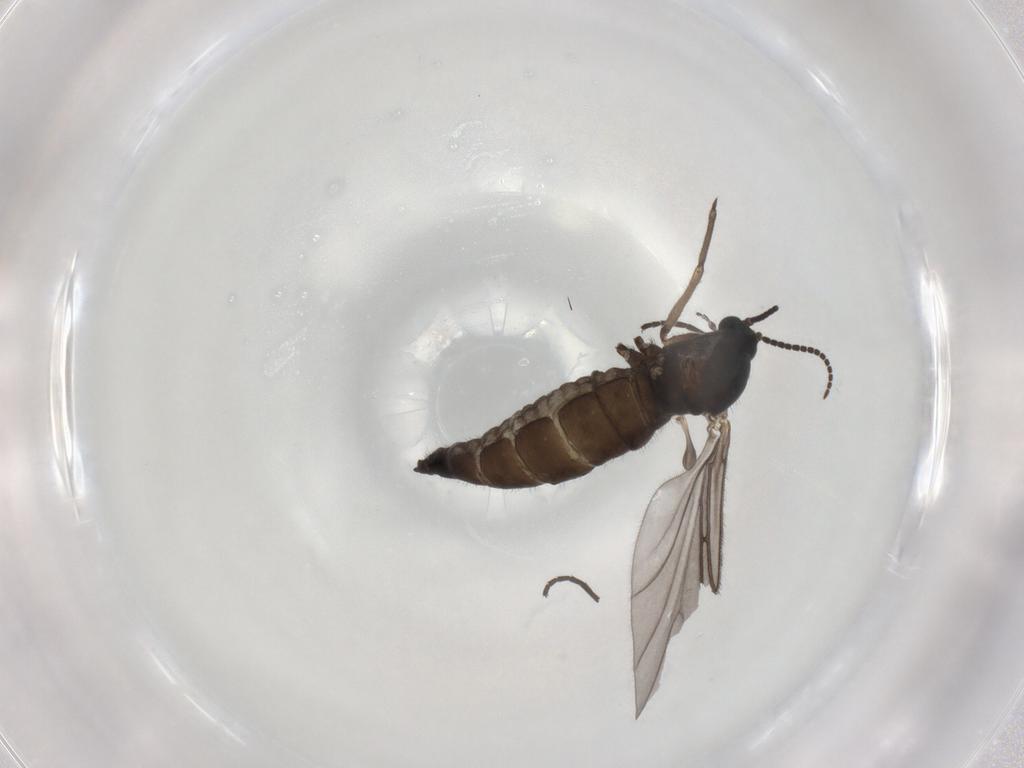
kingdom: Animalia
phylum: Arthropoda
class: Insecta
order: Diptera
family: Sciaridae
